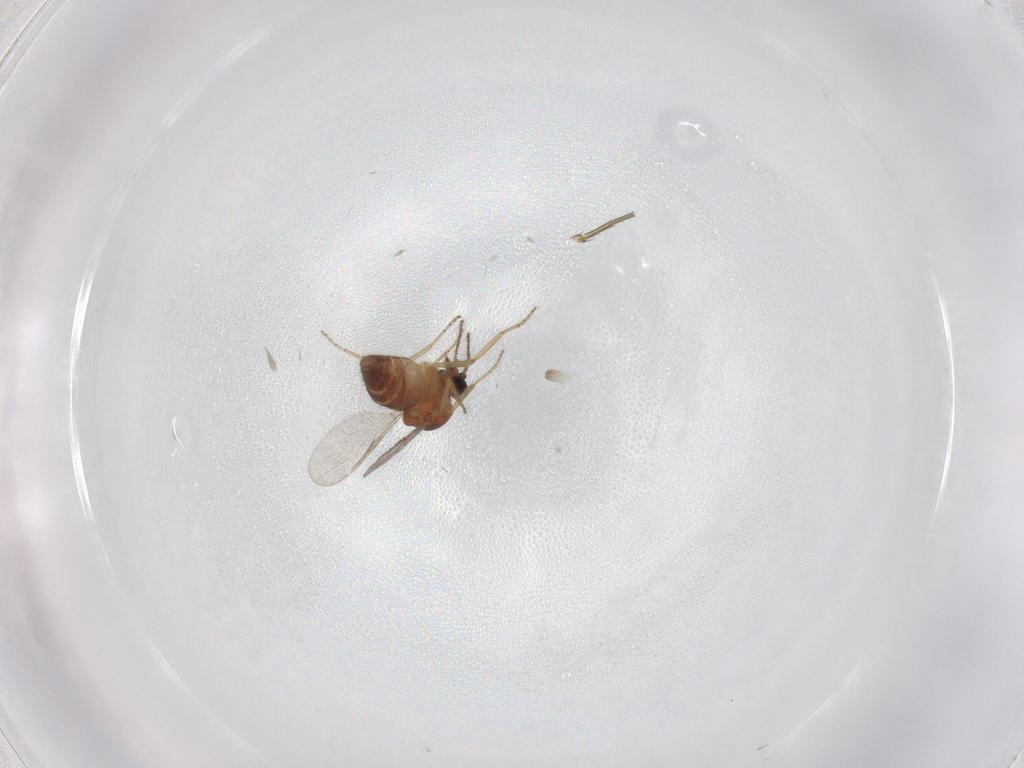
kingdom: Animalia
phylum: Arthropoda
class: Insecta
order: Diptera
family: Ceratopogonidae
